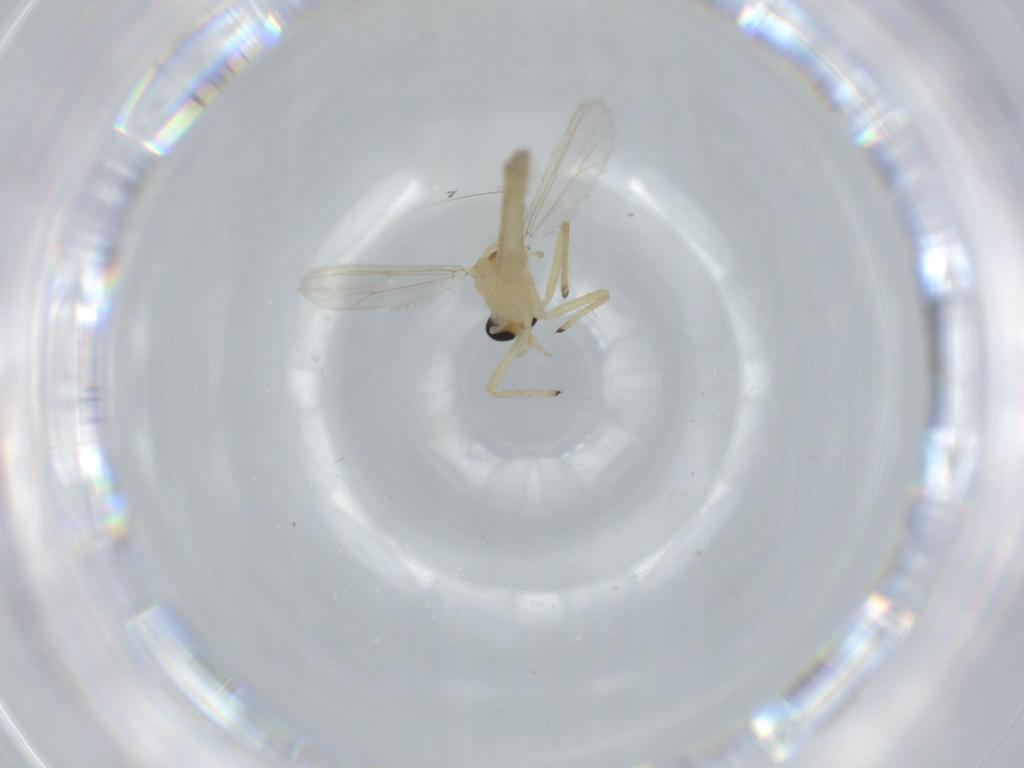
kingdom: Animalia
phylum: Arthropoda
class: Insecta
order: Diptera
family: Chironomidae
